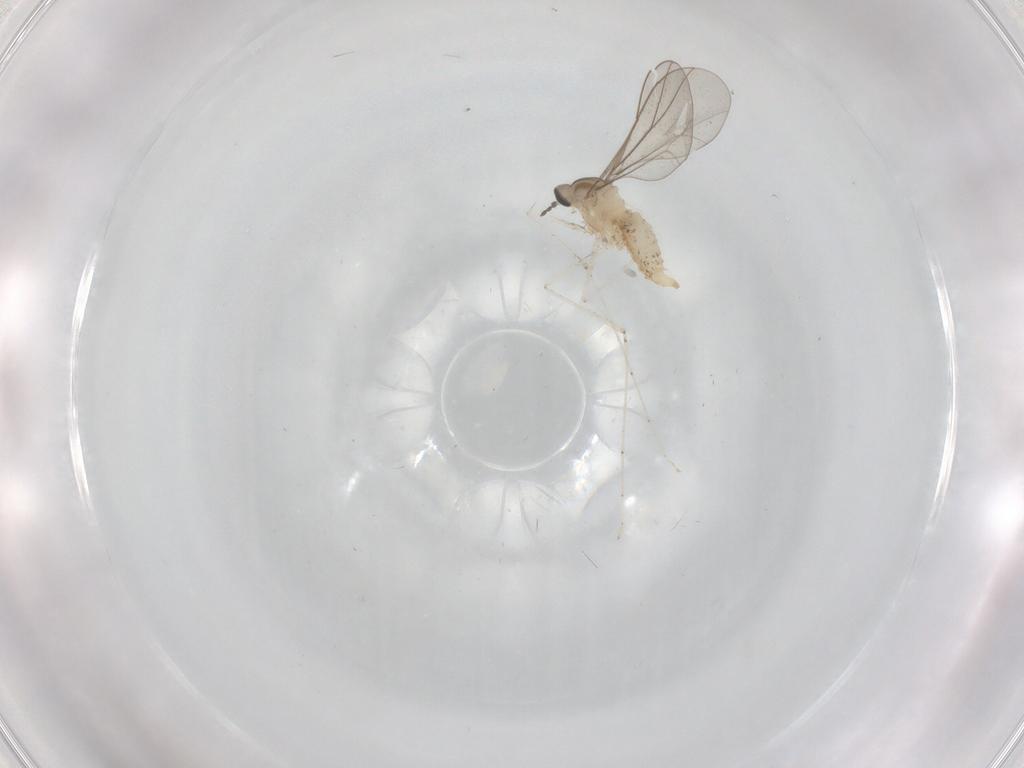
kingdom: Animalia
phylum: Arthropoda
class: Insecta
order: Diptera
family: Cecidomyiidae
